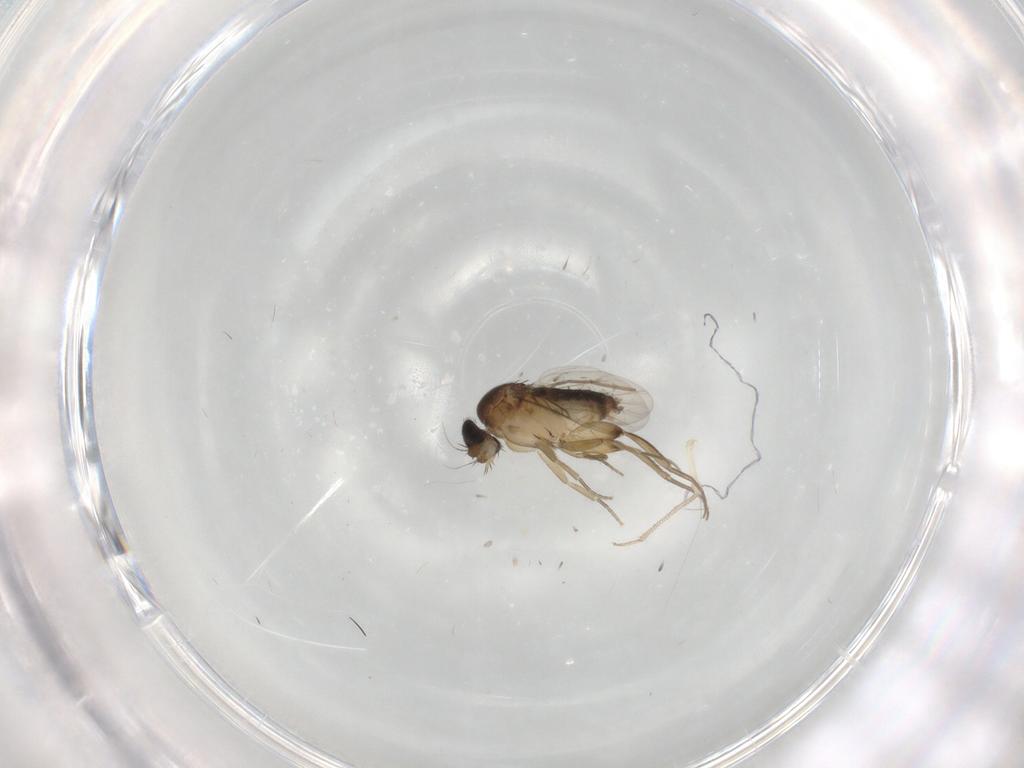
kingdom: Animalia
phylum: Arthropoda
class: Insecta
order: Diptera
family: Phoridae
